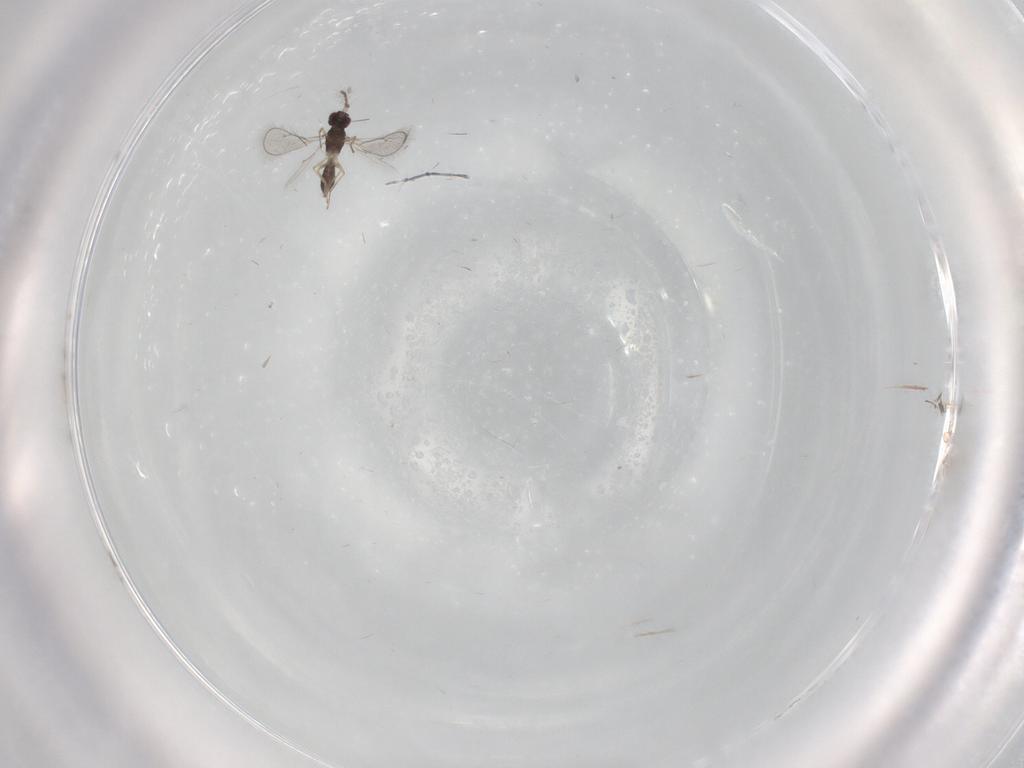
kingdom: Animalia
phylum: Arthropoda
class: Insecta
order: Hymenoptera
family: Eulophidae
